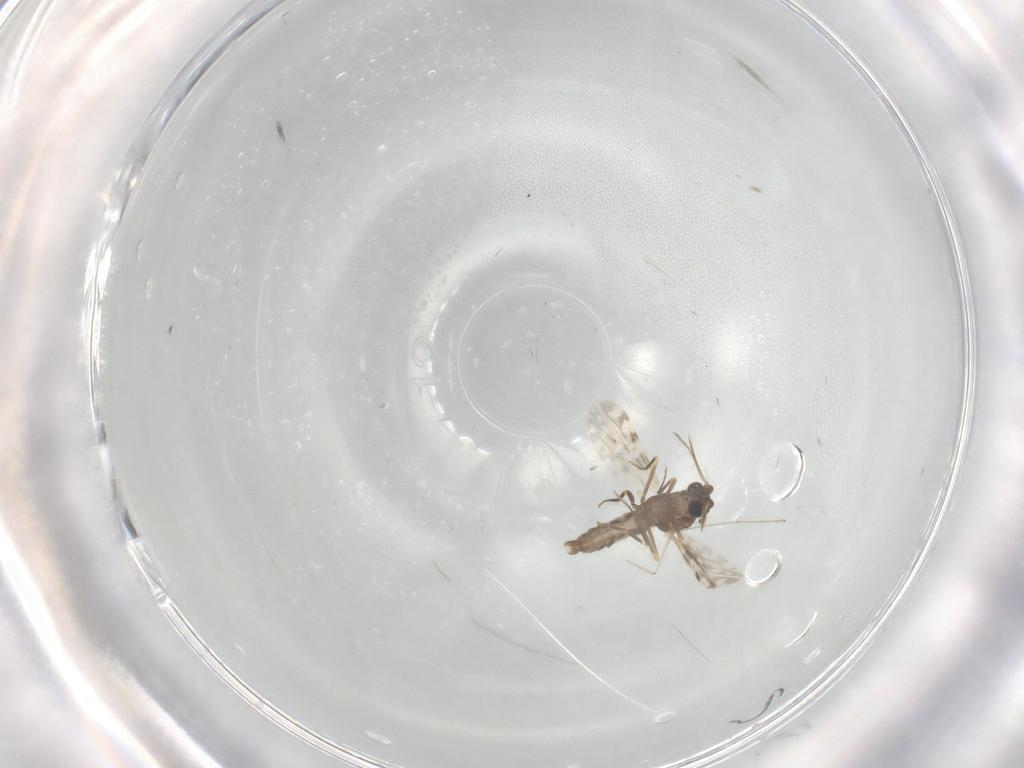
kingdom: Animalia
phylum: Arthropoda
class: Insecta
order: Diptera
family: Ceratopogonidae
